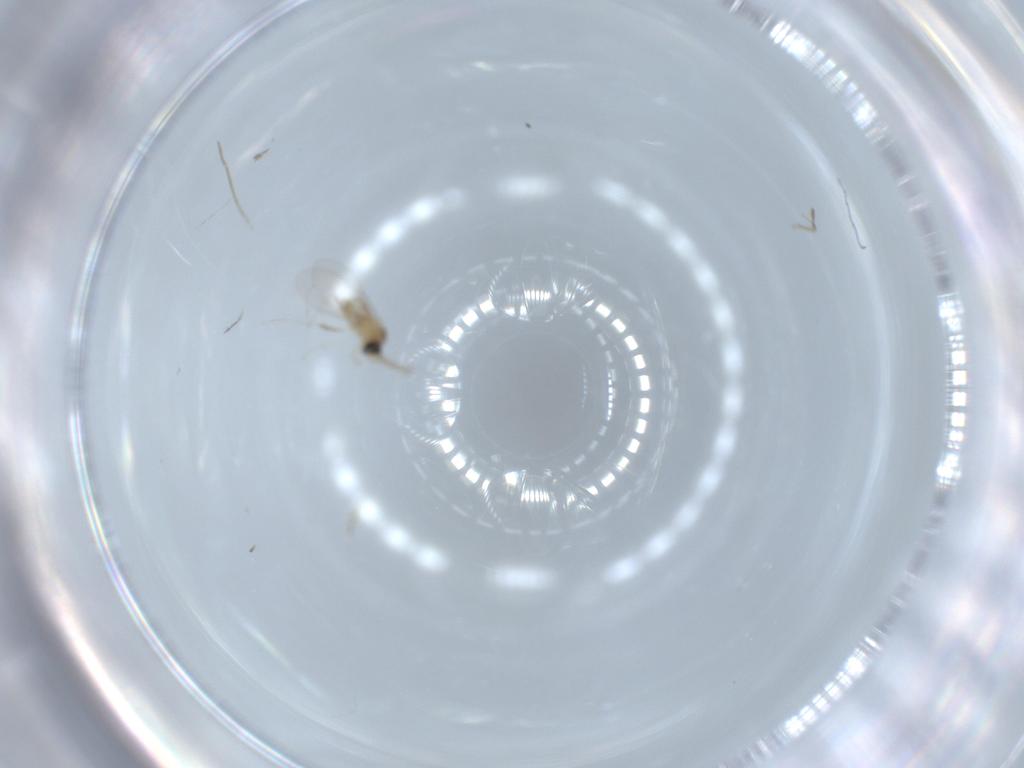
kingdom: Animalia
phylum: Arthropoda
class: Insecta
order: Diptera
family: Cecidomyiidae
